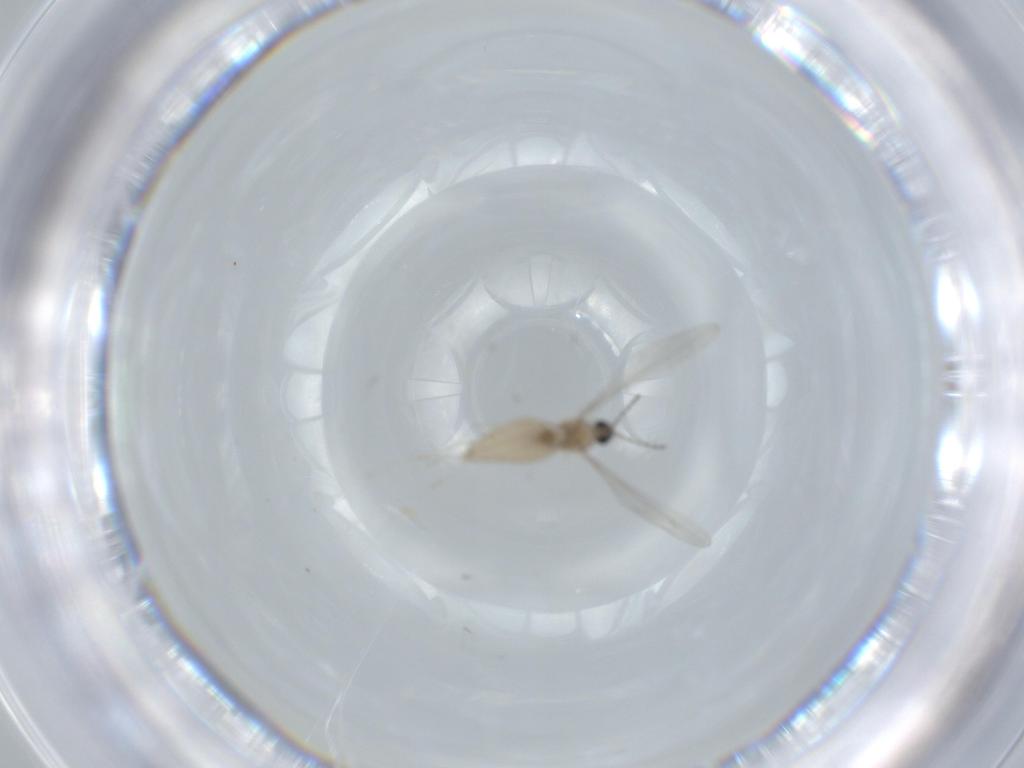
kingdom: Animalia
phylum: Arthropoda
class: Insecta
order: Diptera
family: Cecidomyiidae
